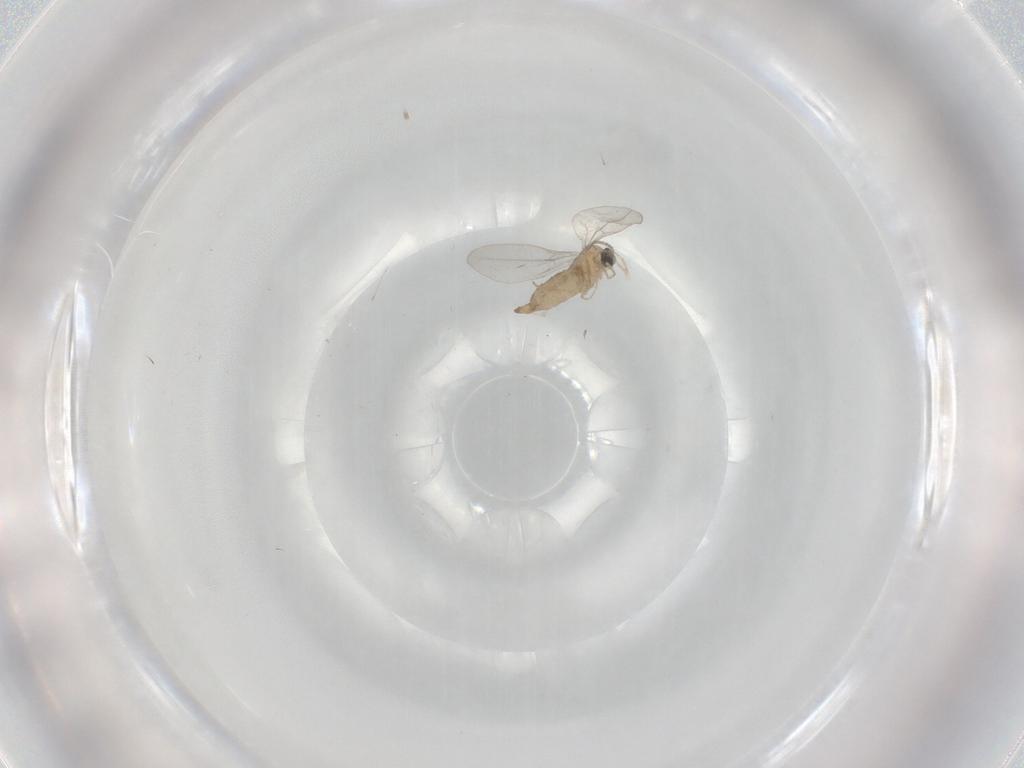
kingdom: Animalia
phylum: Arthropoda
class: Insecta
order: Diptera
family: Cecidomyiidae
